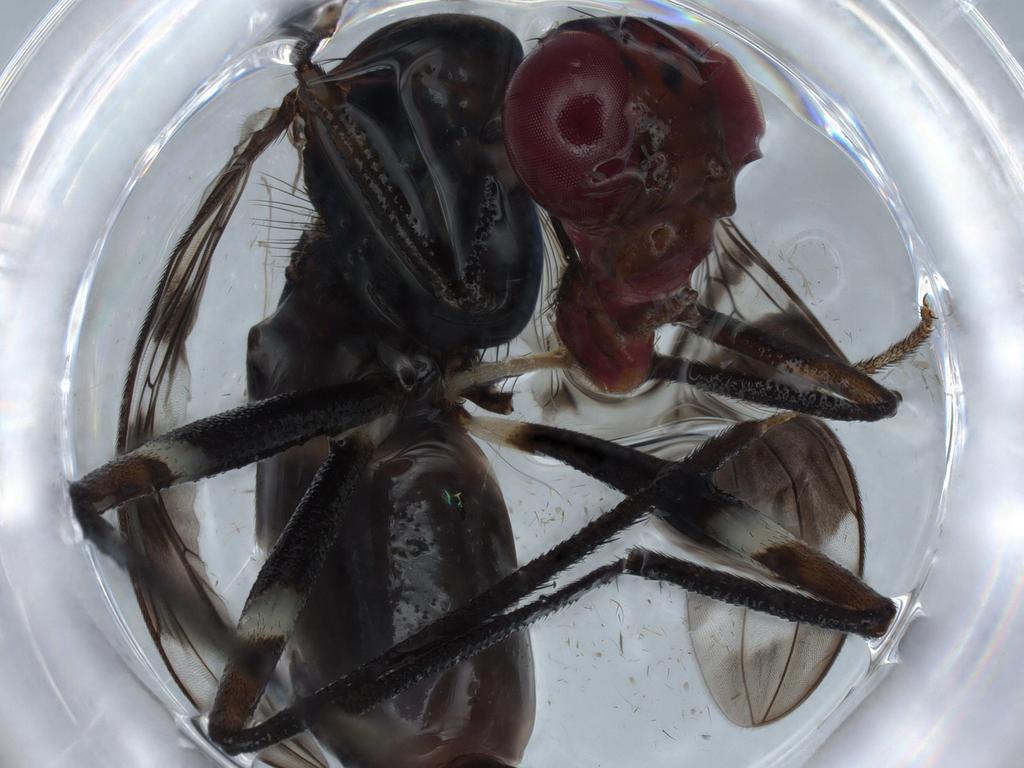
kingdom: Animalia
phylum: Arthropoda
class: Insecta
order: Diptera
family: Micropezidae
